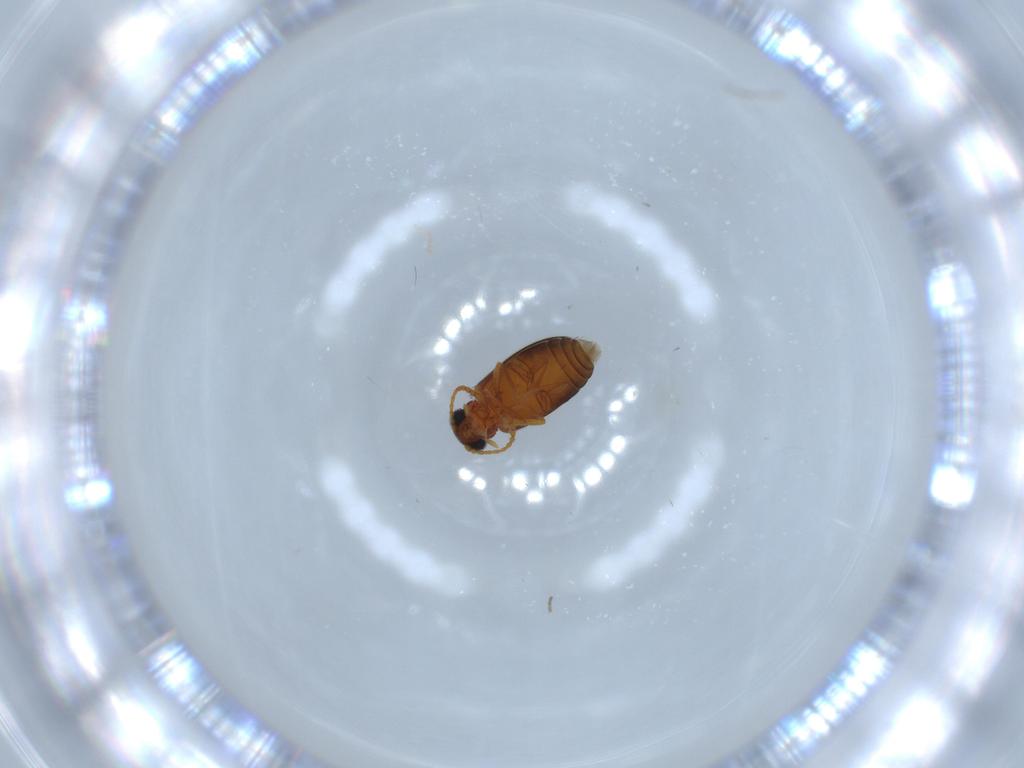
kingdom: Animalia
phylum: Arthropoda
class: Insecta
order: Coleoptera
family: Aderidae
